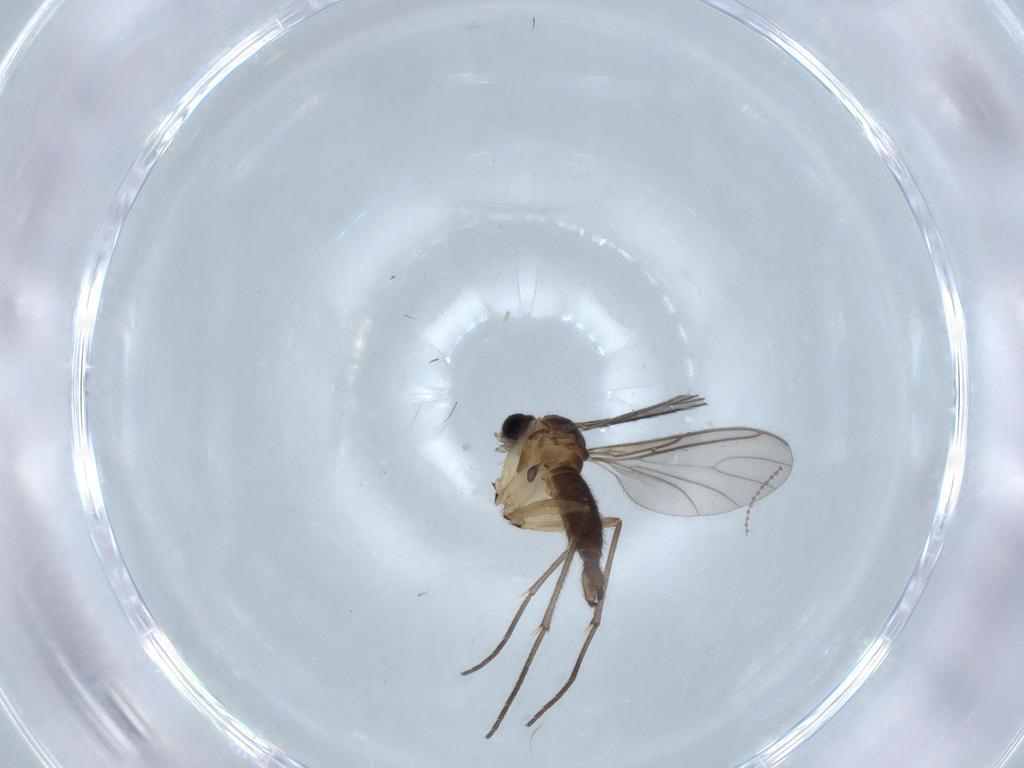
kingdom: Animalia
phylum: Arthropoda
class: Insecta
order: Diptera
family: Sciaridae
